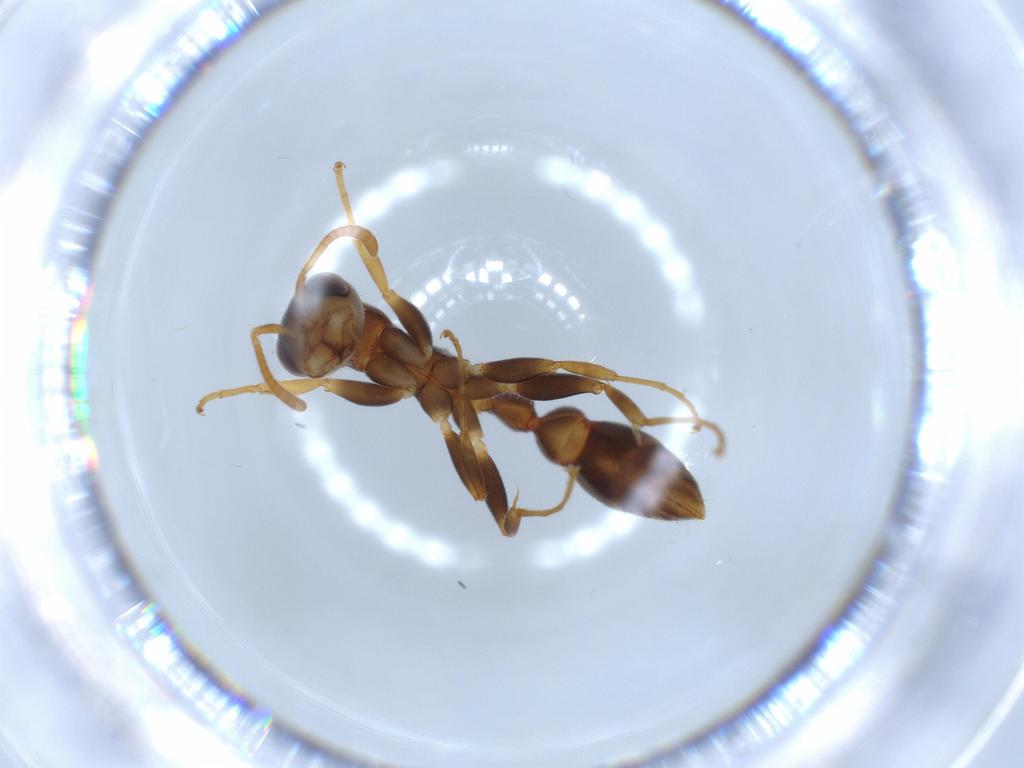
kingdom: Animalia
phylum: Arthropoda
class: Insecta
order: Hymenoptera
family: Formicidae
